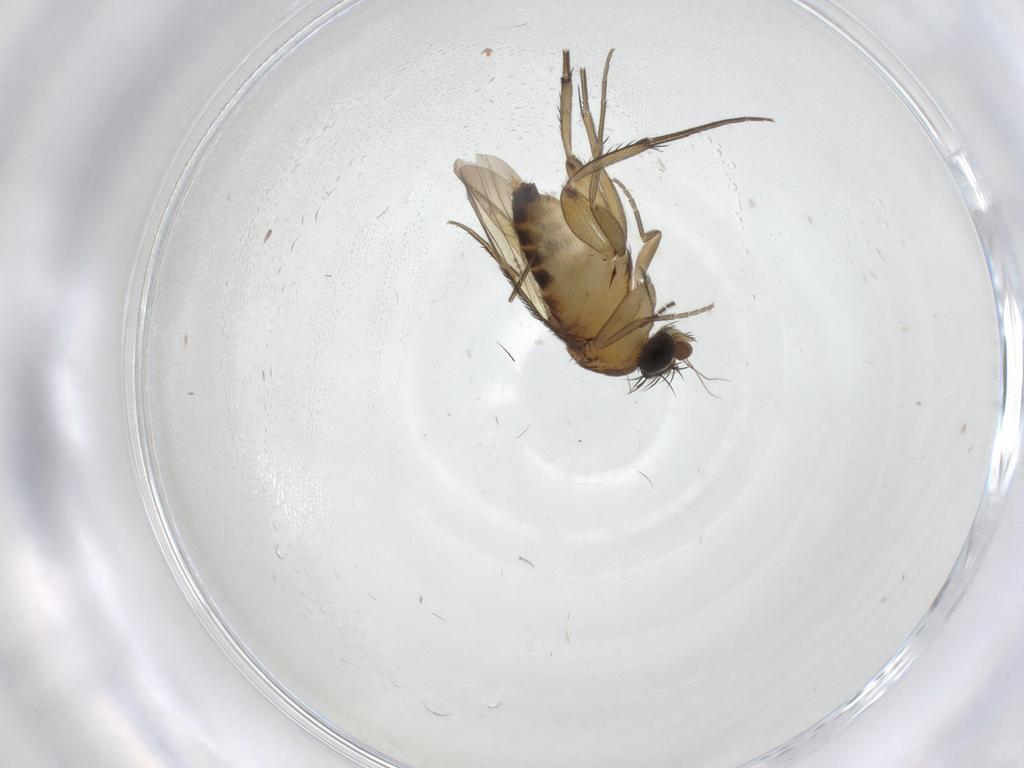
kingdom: Animalia
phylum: Arthropoda
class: Insecta
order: Diptera
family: Phoridae
